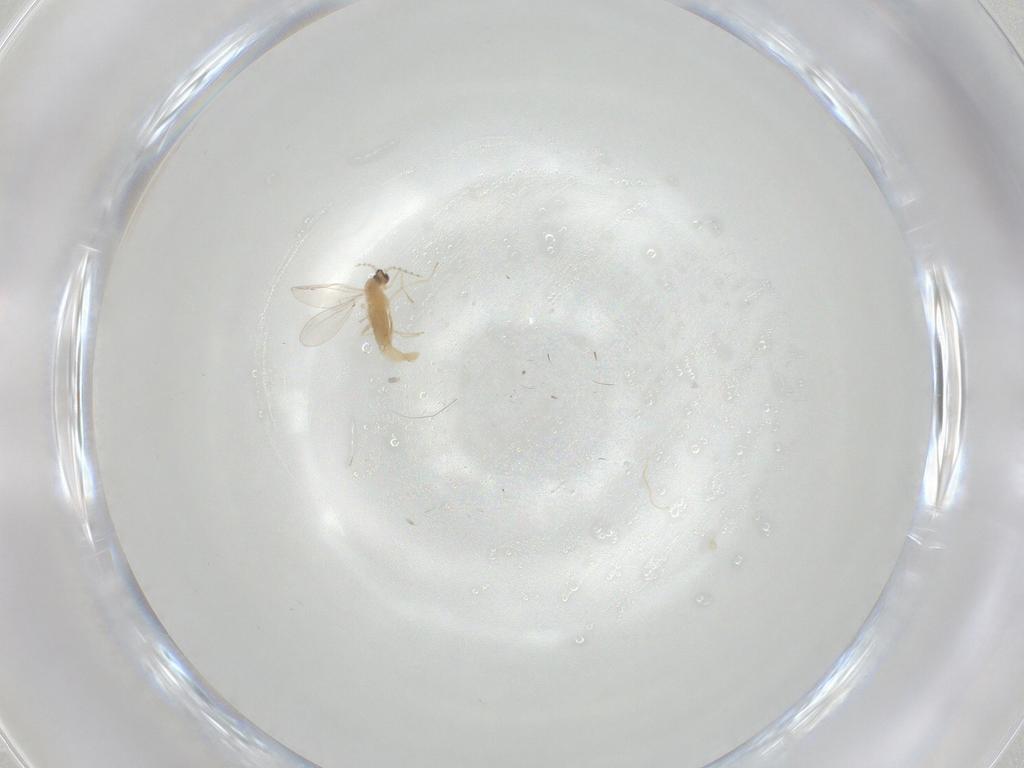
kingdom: Animalia
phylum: Arthropoda
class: Insecta
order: Diptera
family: Cecidomyiidae
